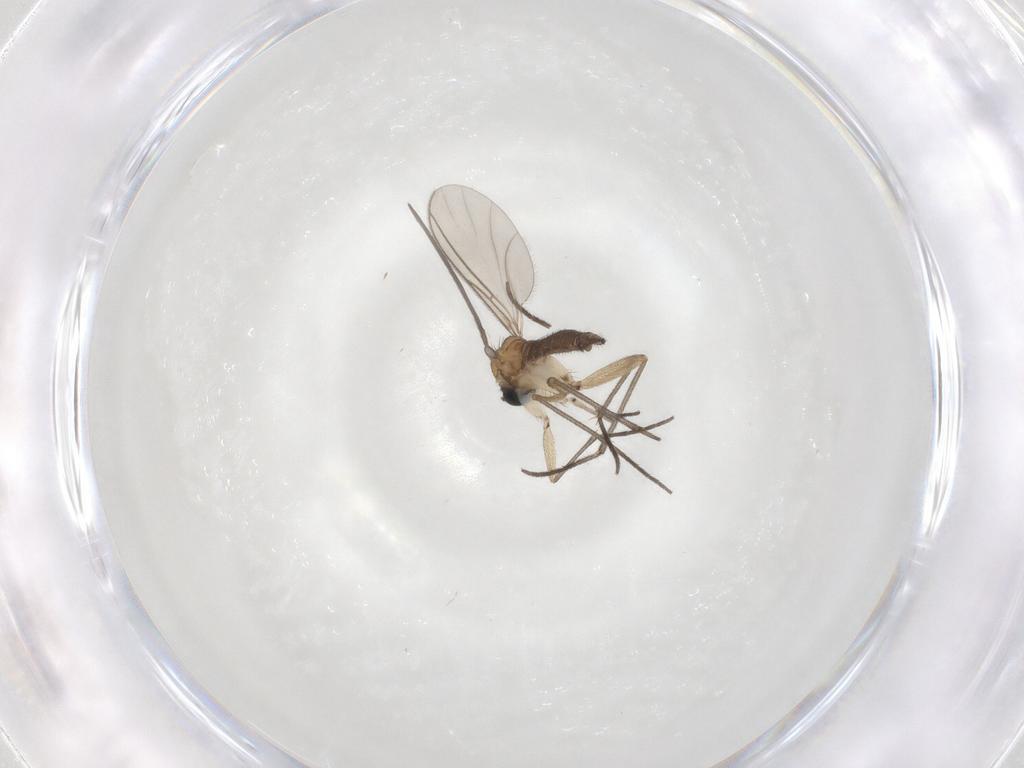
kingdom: Animalia
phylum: Arthropoda
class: Insecta
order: Diptera
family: Sciaridae
